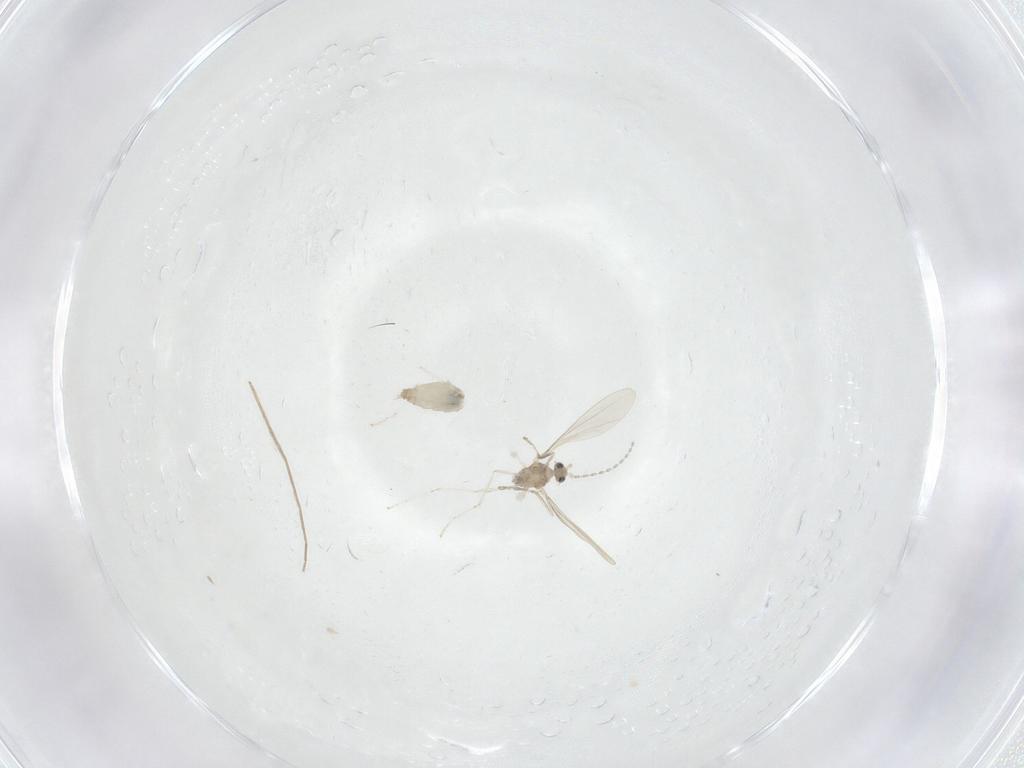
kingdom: Animalia
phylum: Arthropoda
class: Insecta
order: Diptera
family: Cecidomyiidae
